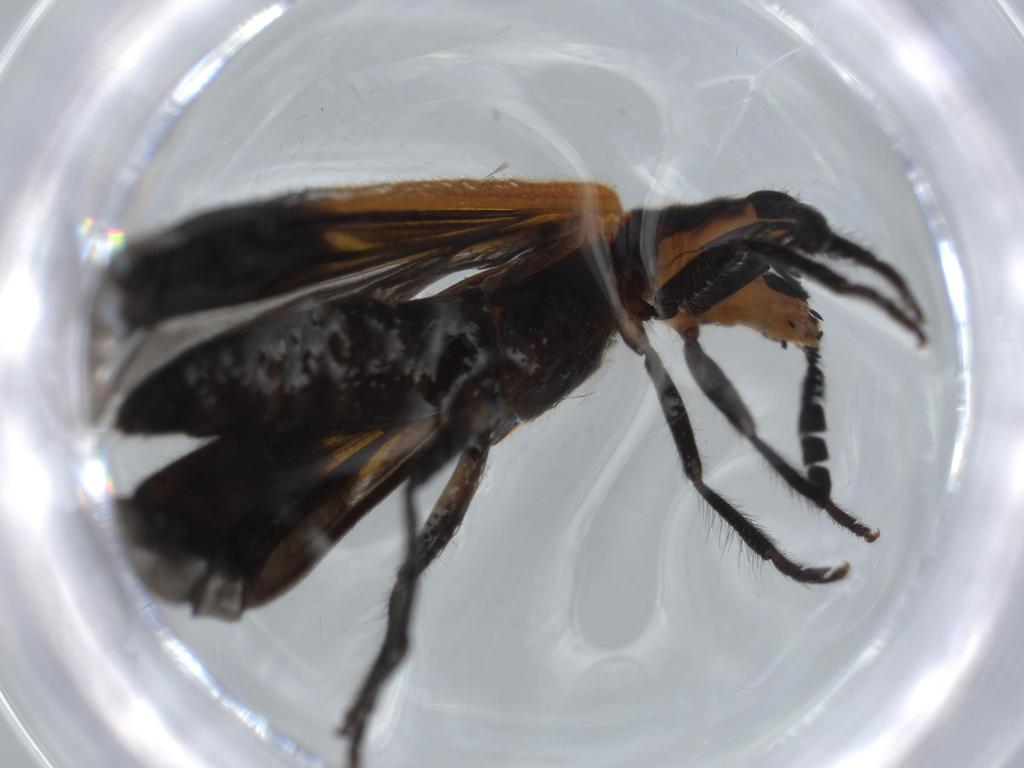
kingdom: Animalia
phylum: Arthropoda
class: Insecta
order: Coleoptera
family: Cleridae
